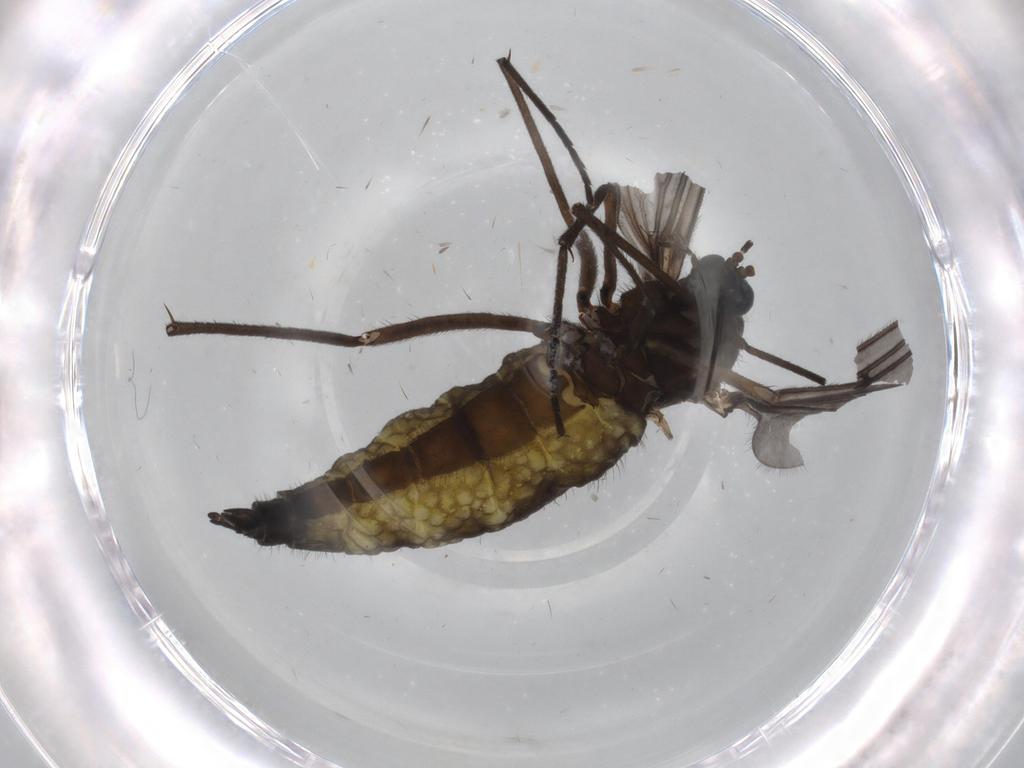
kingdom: Animalia
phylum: Arthropoda
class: Insecta
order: Diptera
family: Sciaridae
